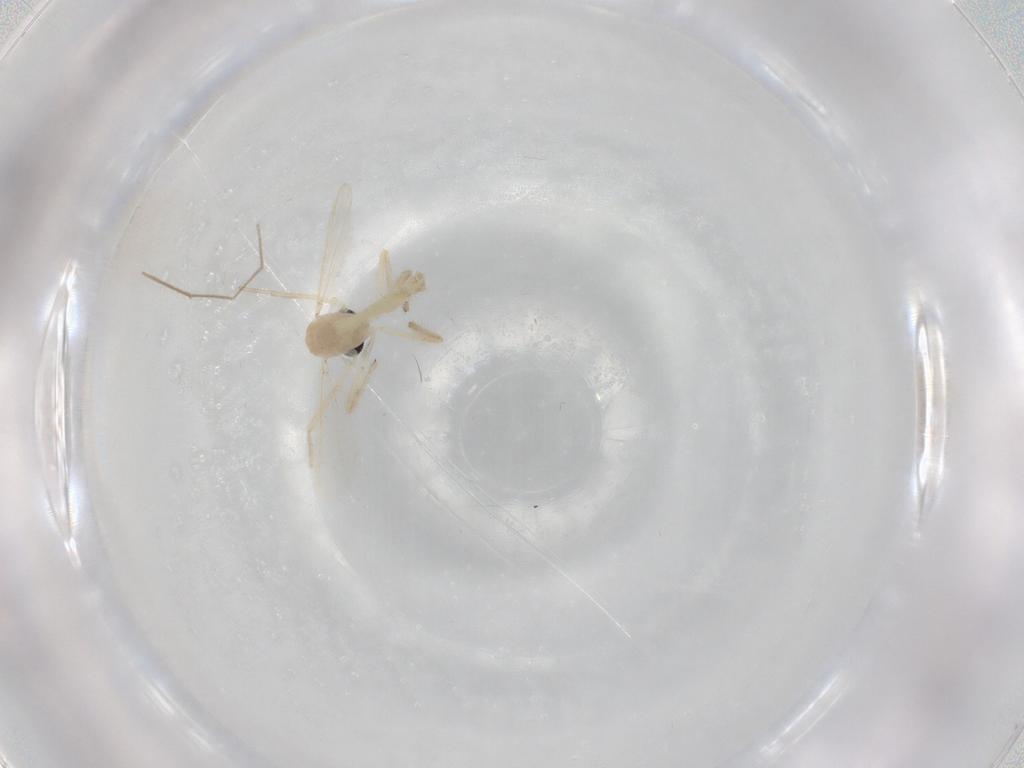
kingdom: Animalia
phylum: Arthropoda
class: Insecta
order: Diptera
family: Chironomidae
